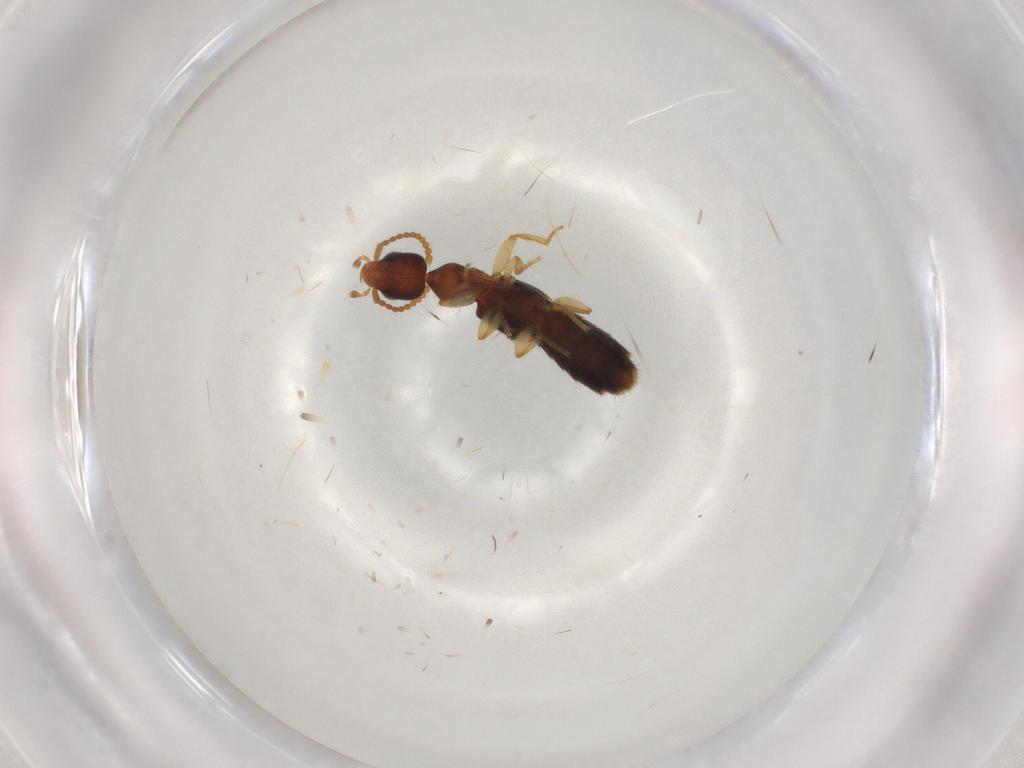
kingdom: Animalia
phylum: Arthropoda
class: Insecta
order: Coleoptera
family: Staphylinidae
